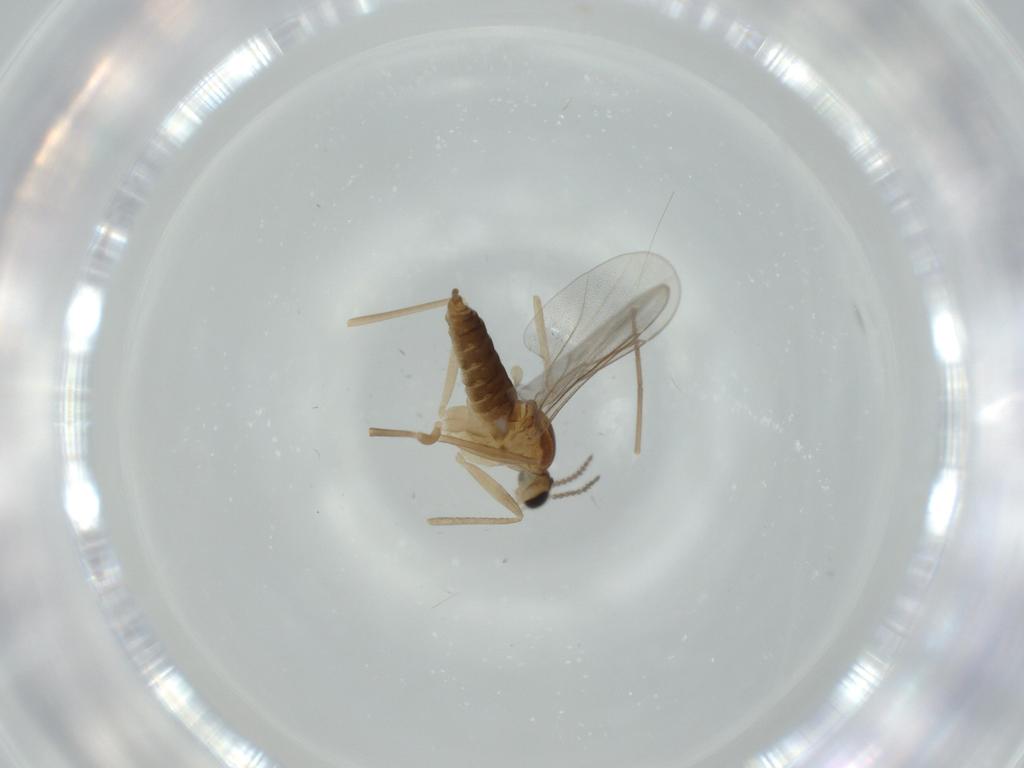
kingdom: Animalia
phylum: Arthropoda
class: Insecta
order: Diptera
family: Cecidomyiidae
